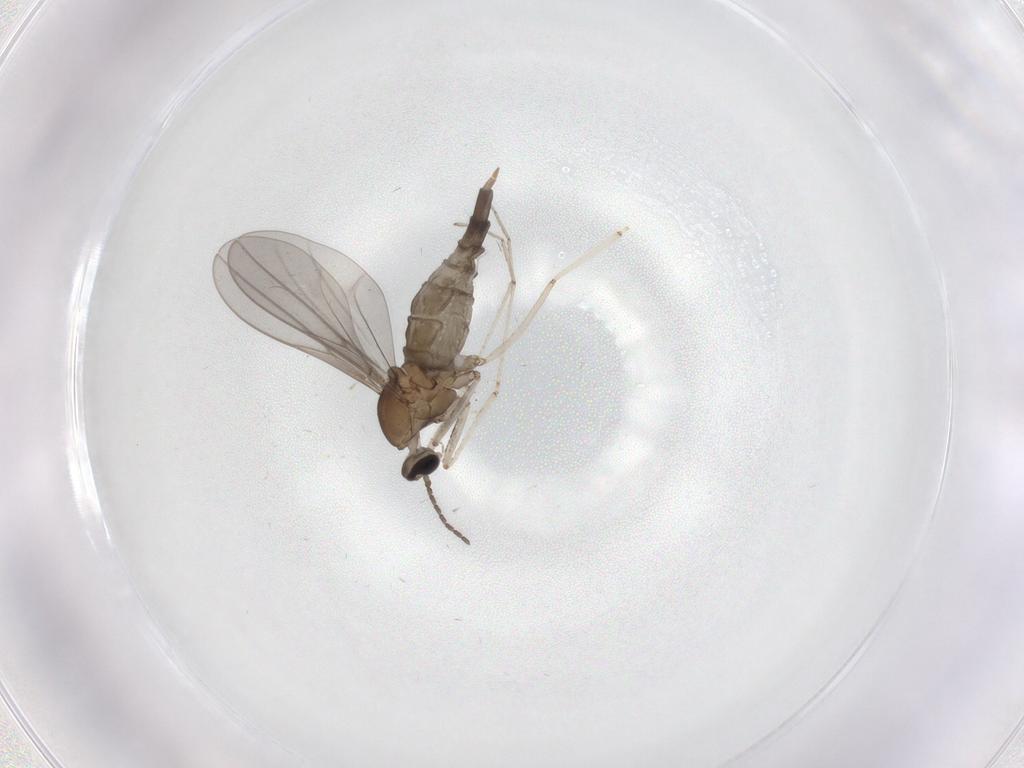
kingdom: Animalia
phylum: Arthropoda
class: Insecta
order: Diptera
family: Cecidomyiidae
